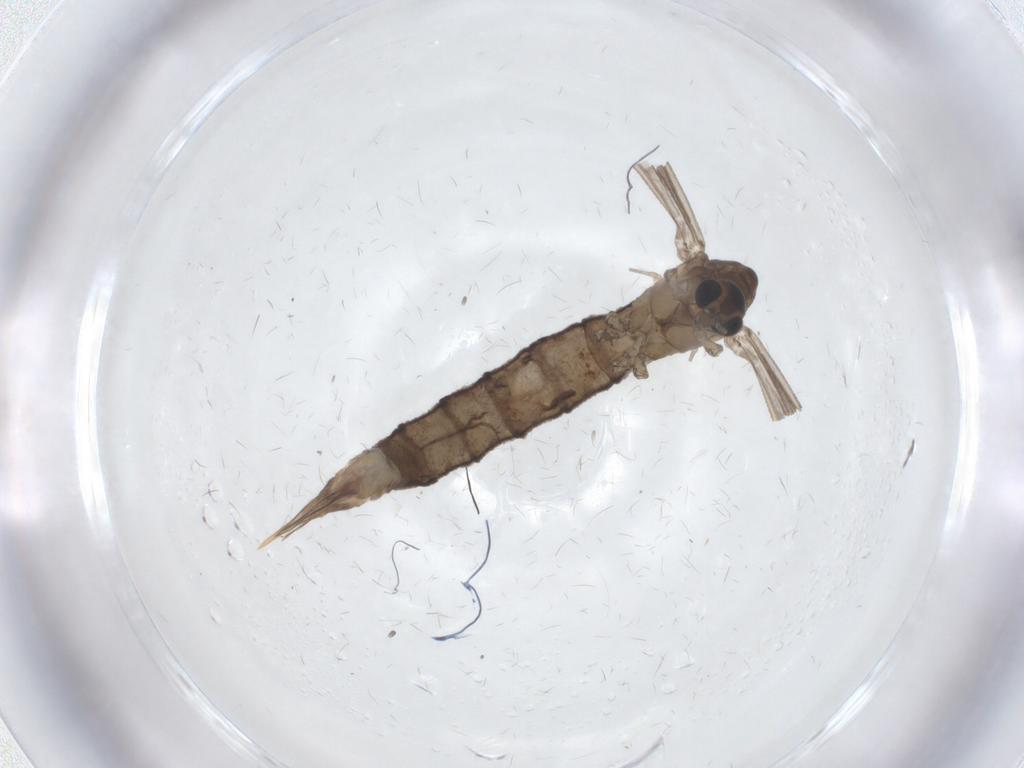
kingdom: Animalia
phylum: Arthropoda
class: Insecta
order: Diptera
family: Limoniidae
